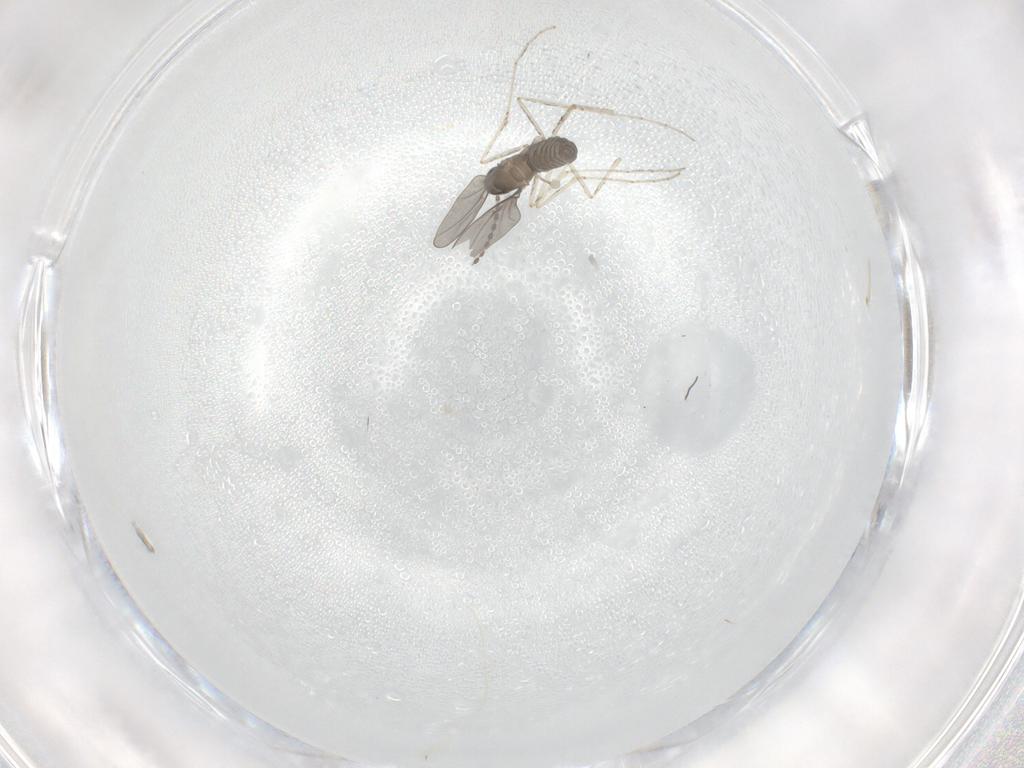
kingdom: Animalia
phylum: Arthropoda
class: Insecta
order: Diptera
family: Cecidomyiidae
